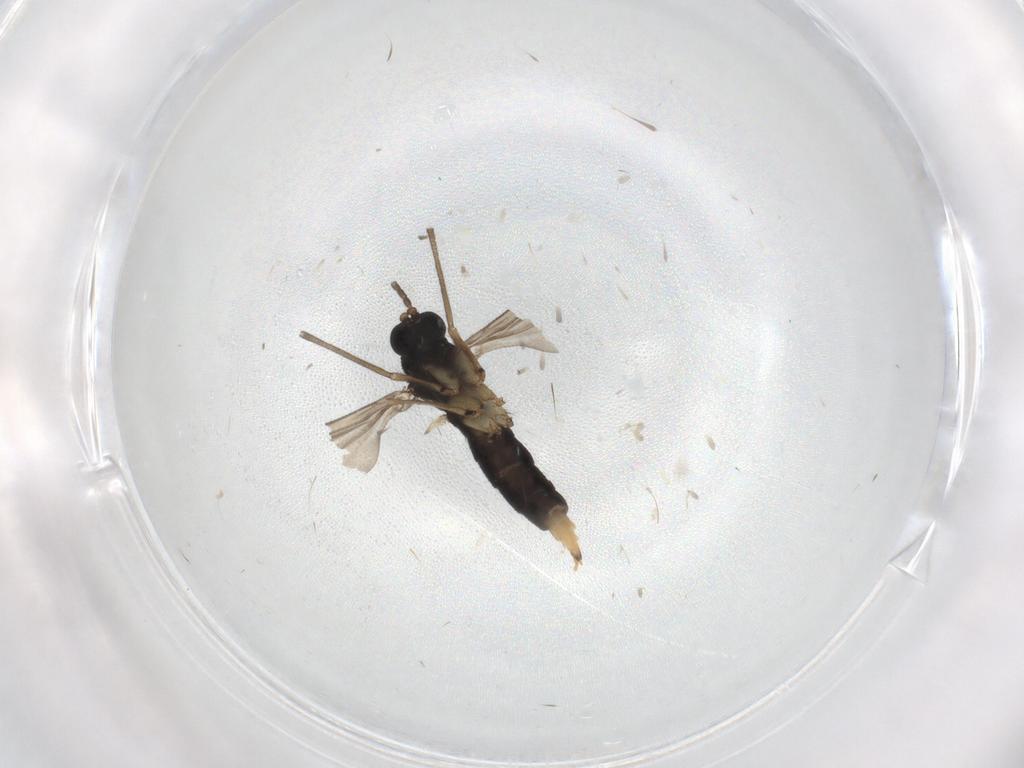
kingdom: Animalia
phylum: Arthropoda
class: Insecta
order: Diptera
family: Sciaridae
